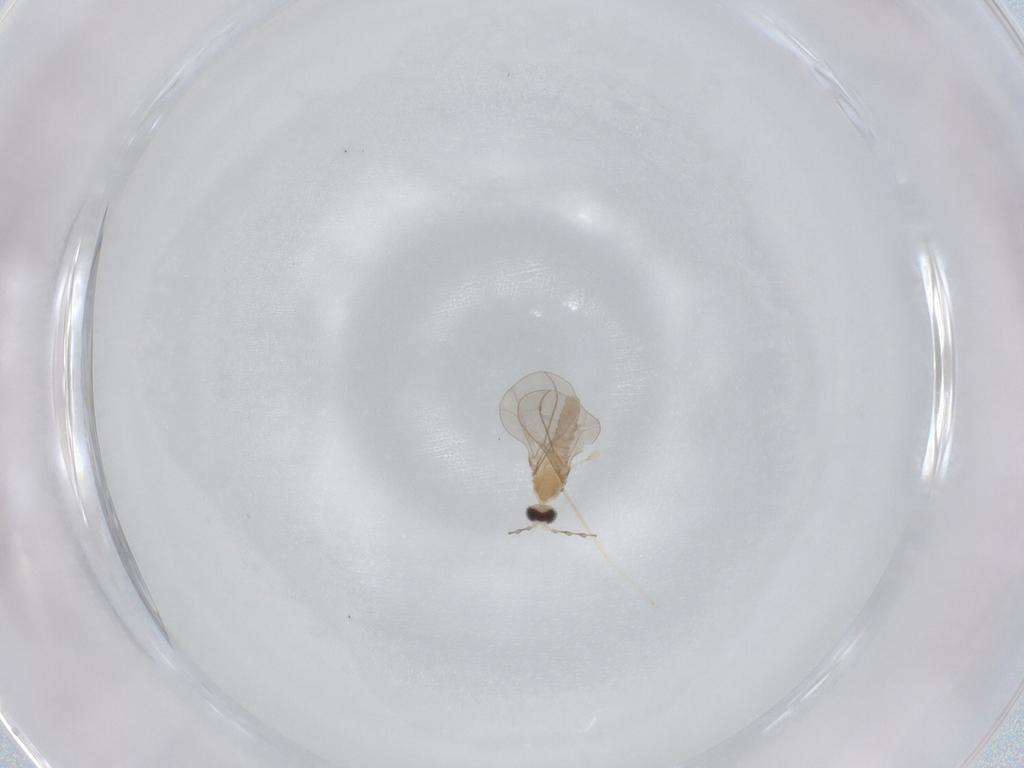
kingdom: Animalia
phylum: Arthropoda
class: Insecta
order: Diptera
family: Lauxaniidae
